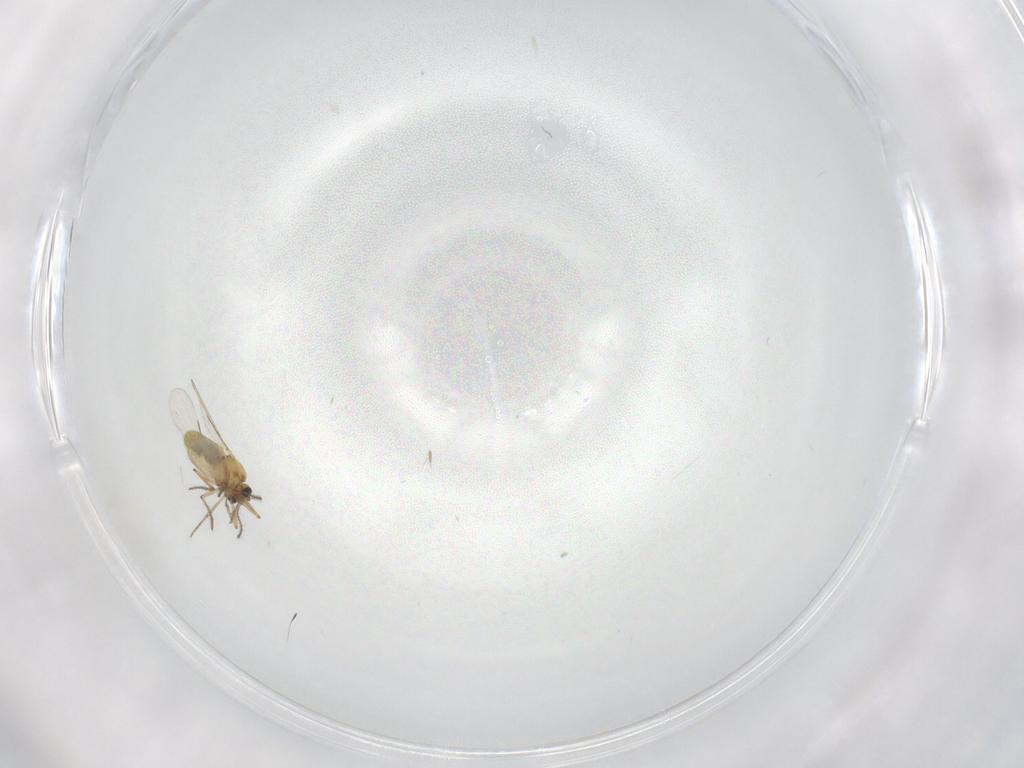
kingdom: Animalia
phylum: Arthropoda
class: Insecta
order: Diptera
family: Ceratopogonidae
